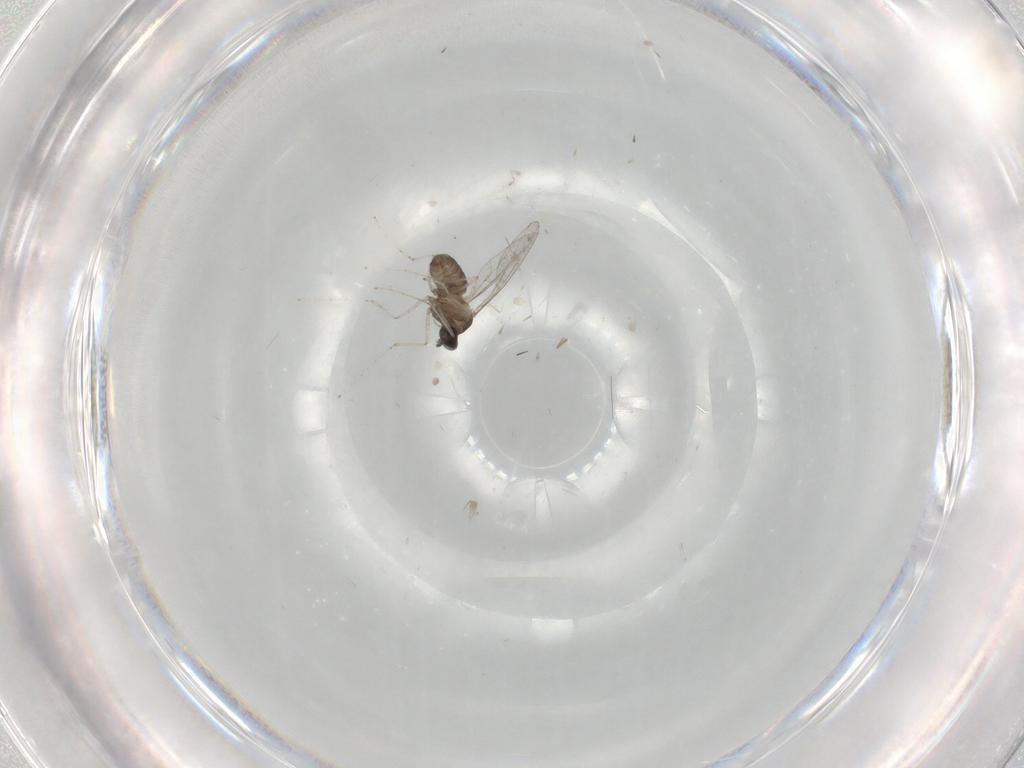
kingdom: Animalia
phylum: Arthropoda
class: Insecta
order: Diptera
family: Cecidomyiidae
